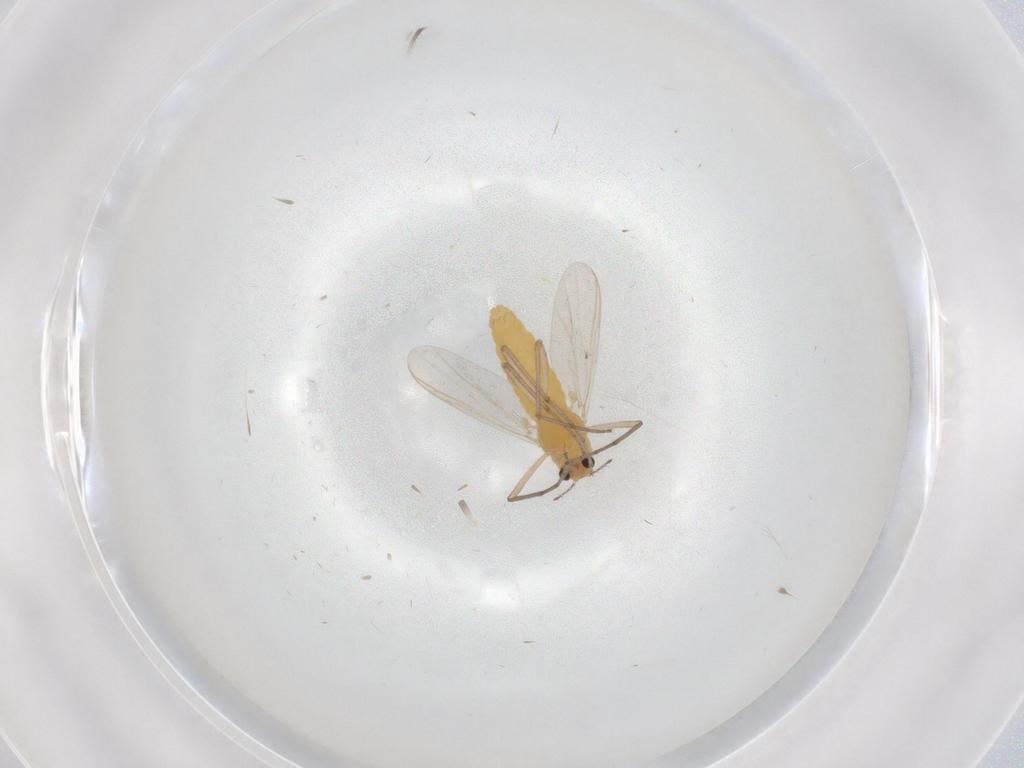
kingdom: Animalia
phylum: Arthropoda
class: Insecta
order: Diptera
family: Chironomidae
